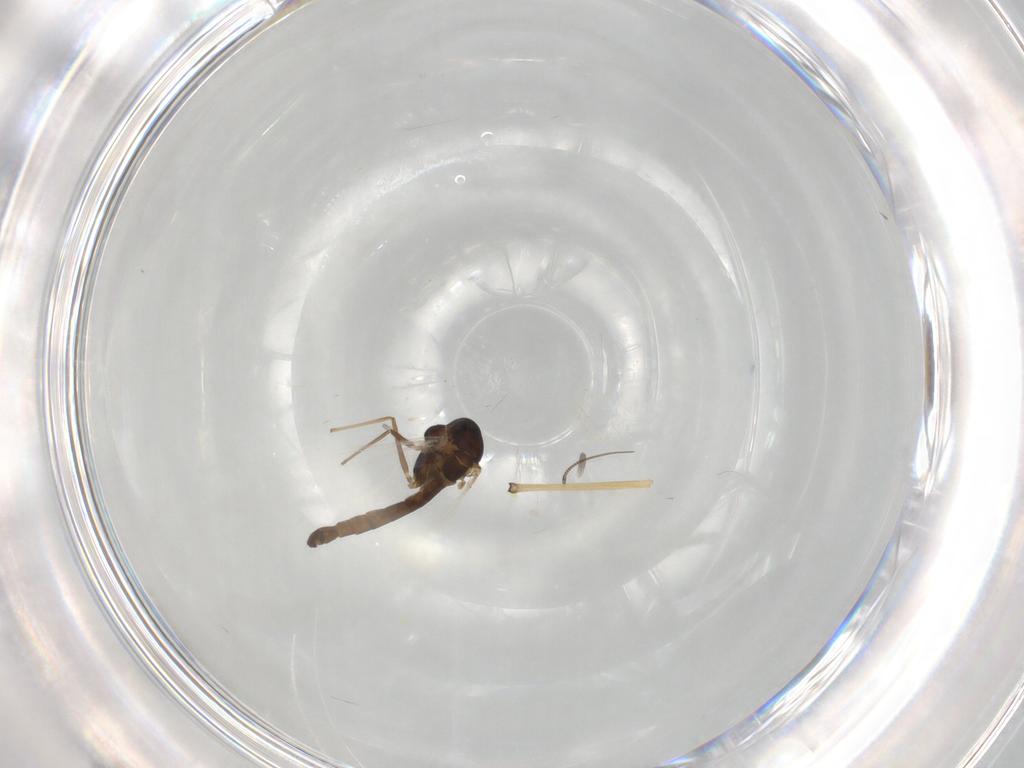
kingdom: Animalia
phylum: Arthropoda
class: Insecta
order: Diptera
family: Chironomidae
